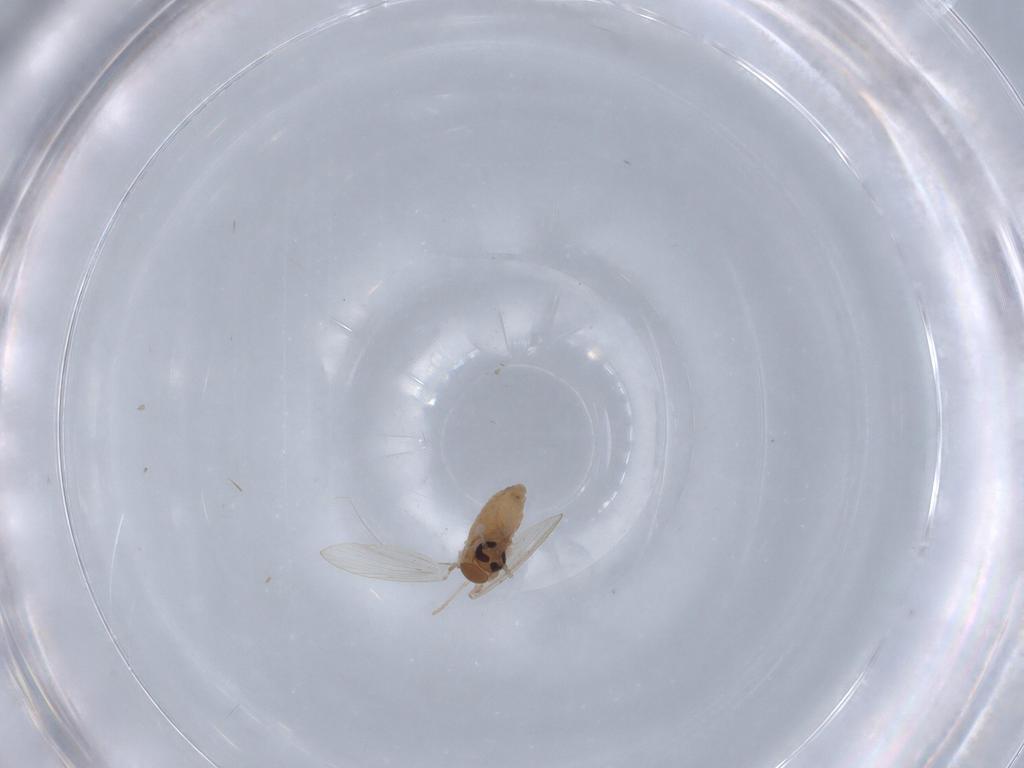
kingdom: Animalia
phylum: Arthropoda
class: Insecta
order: Diptera
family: Psychodidae
